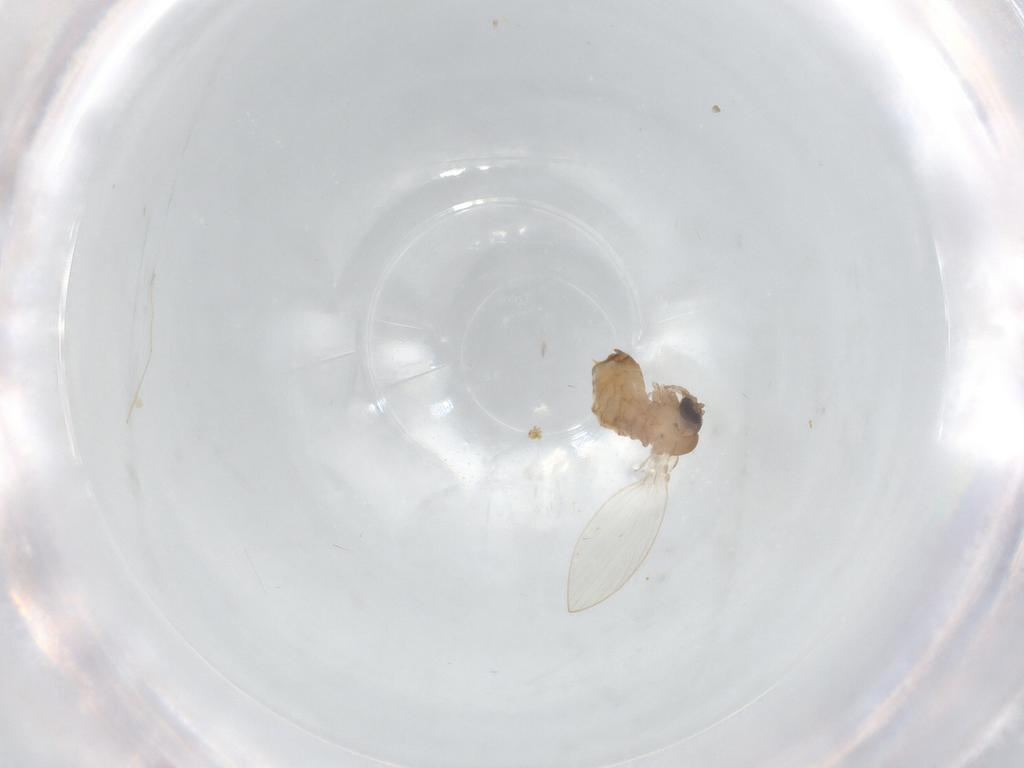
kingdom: Animalia
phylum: Arthropoda
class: Insecta
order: Diptera
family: Chironomidae
